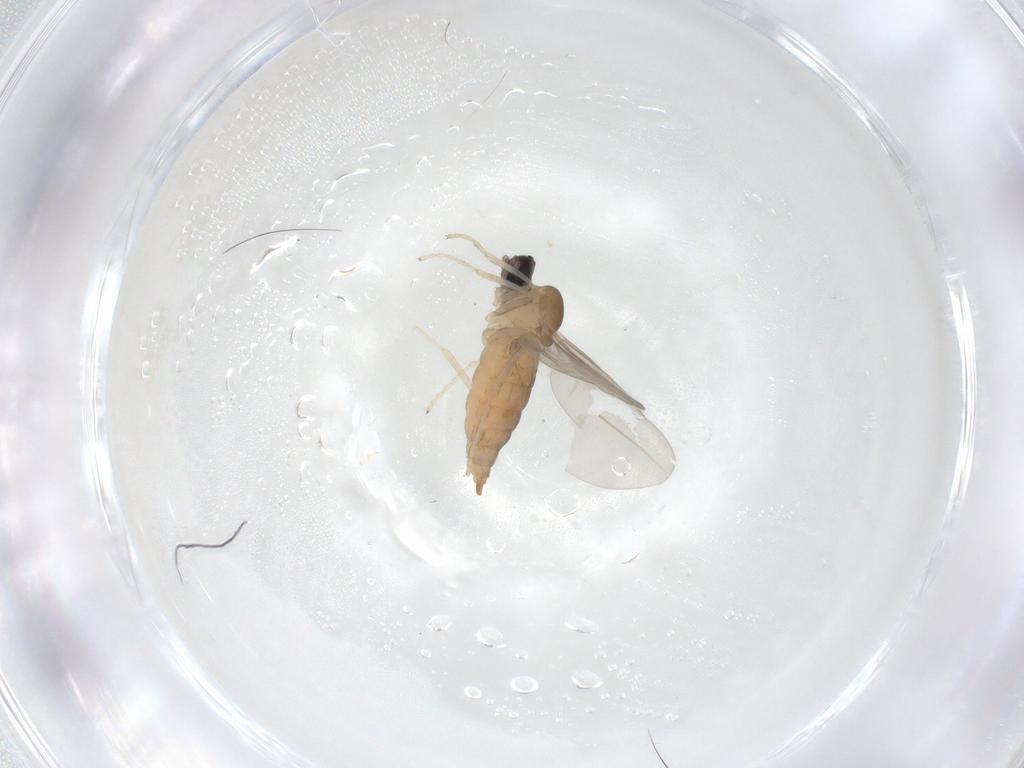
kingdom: Animalia
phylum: Arthropoda
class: Insecta
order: Diptera
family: Cecidomyiidae
